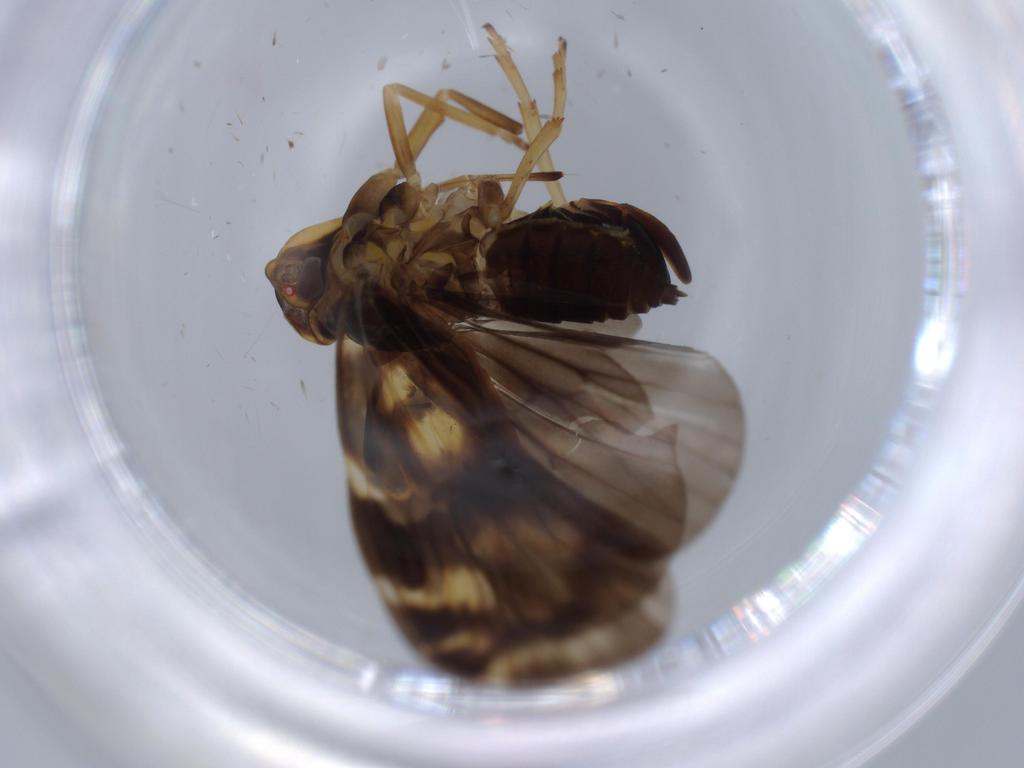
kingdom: Animalia
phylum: Arthropoda
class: Insecta
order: Hemiptera
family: Cixiidae
